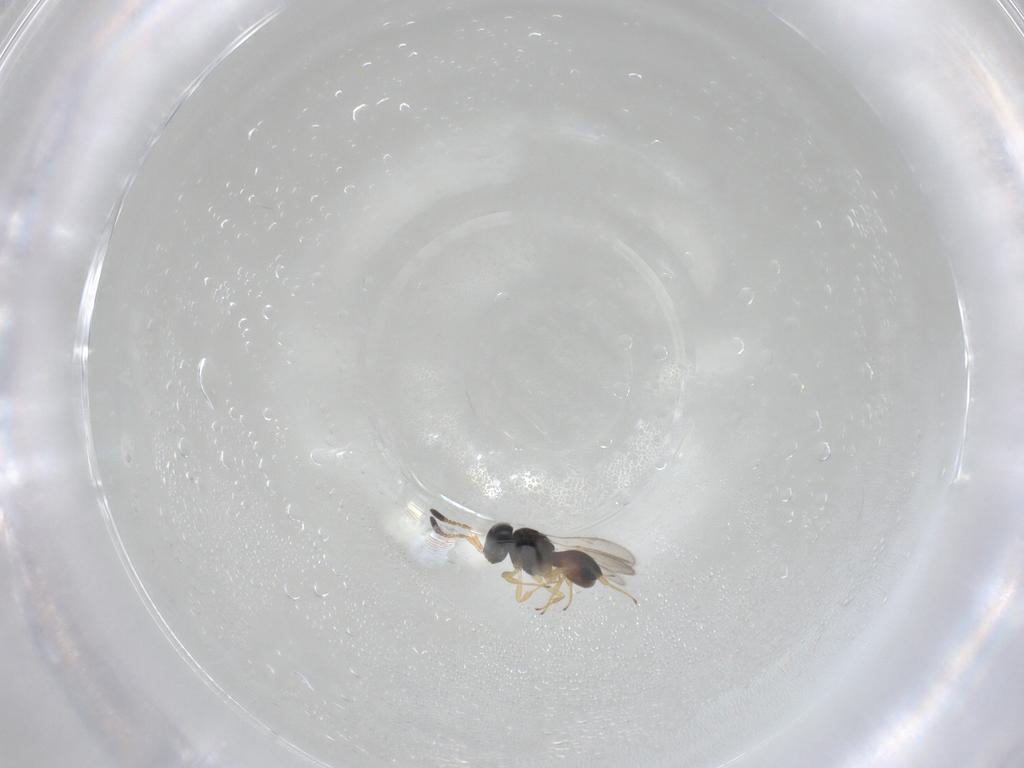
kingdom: Animalia
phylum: Arthropoda
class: Insecta
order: Hymenoptera
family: Scelionidae
